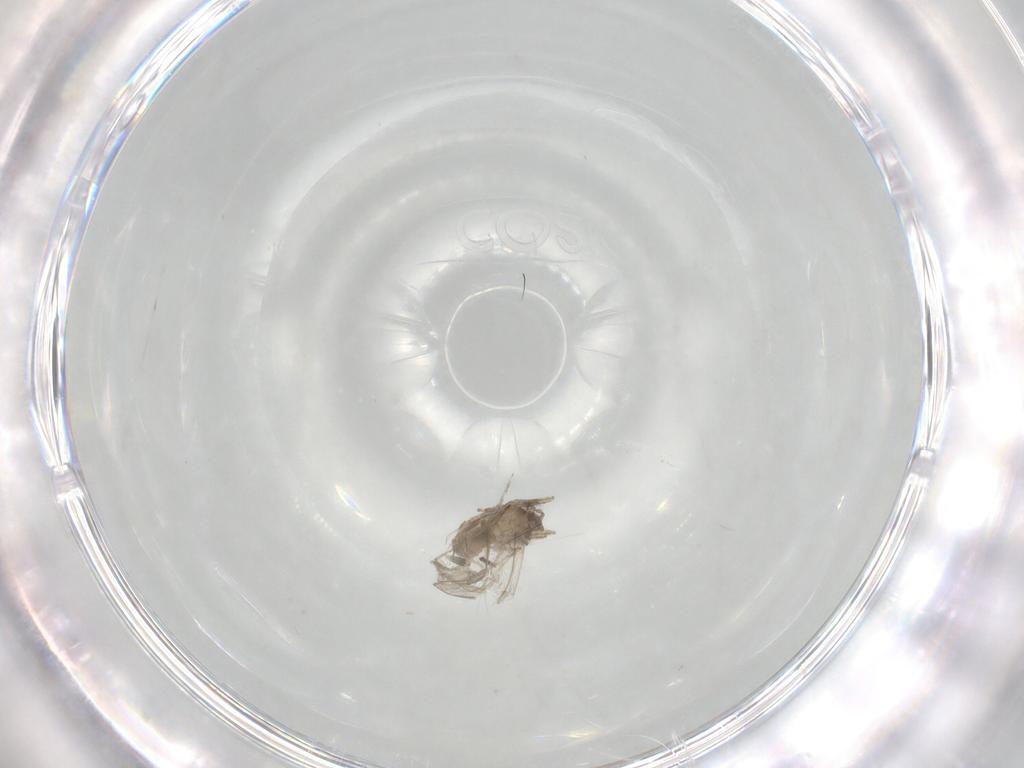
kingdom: Animalia
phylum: Arthropoda
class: Insecta
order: Diptera
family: Cecidomyiidae
